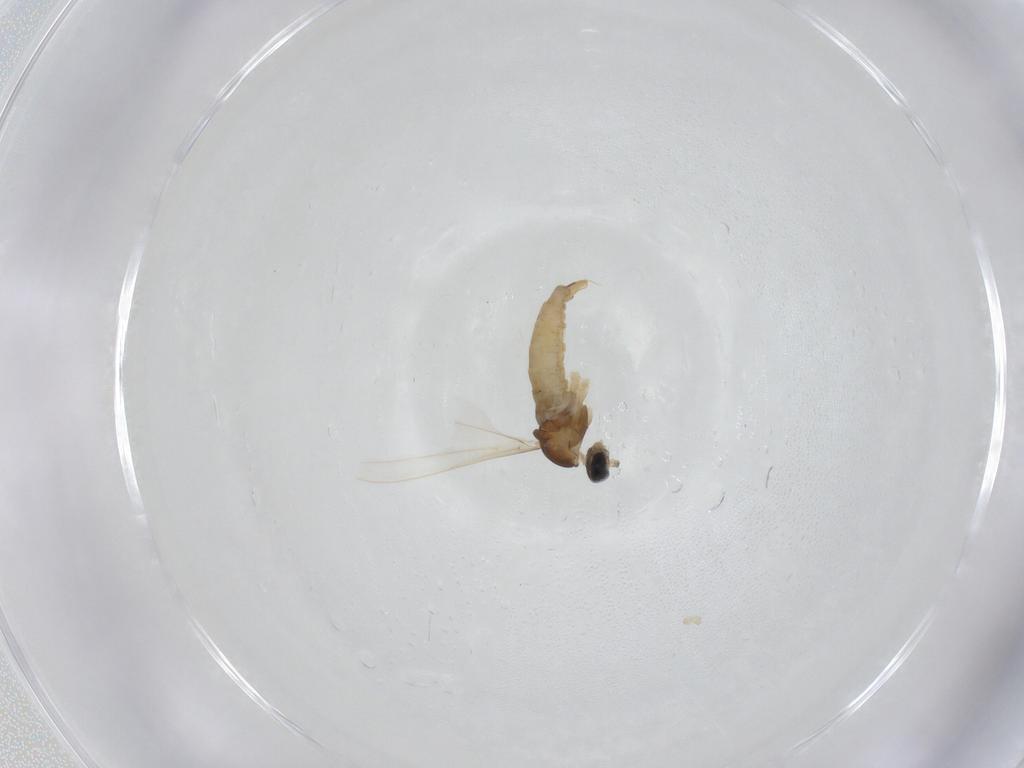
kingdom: Animalia
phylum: Arthropoda
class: Insecta
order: Diptera
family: Cecidomyiidae
